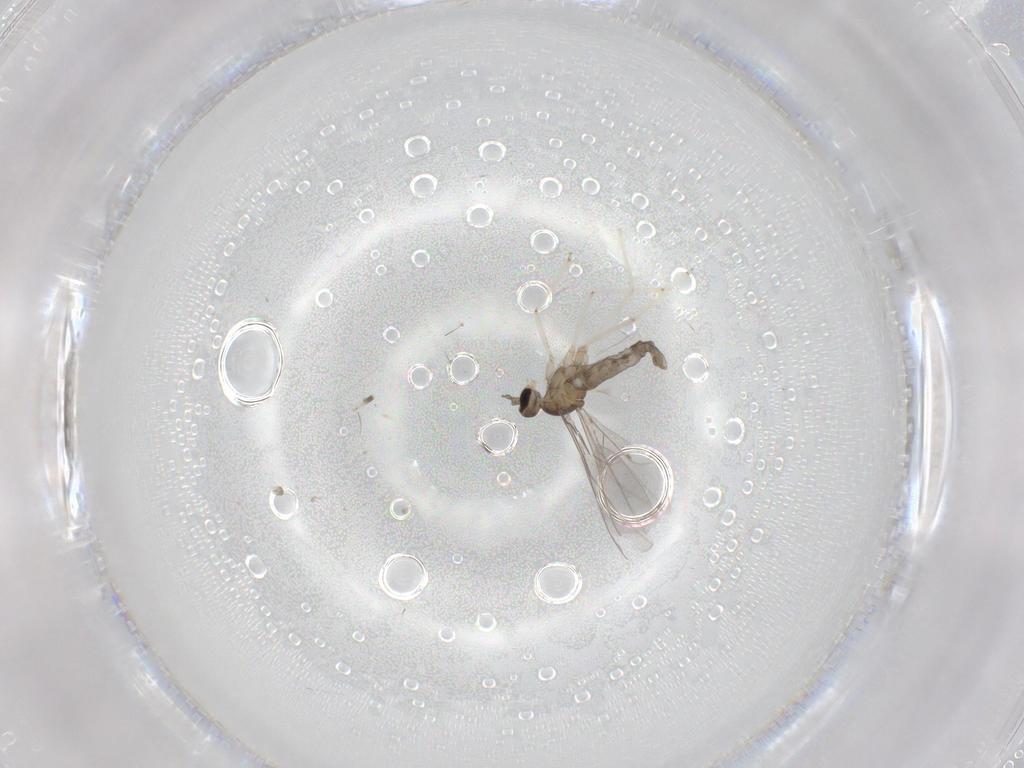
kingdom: Animalia
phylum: Arthropoda
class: Insecta
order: Diptera
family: Cecidomyiidae
